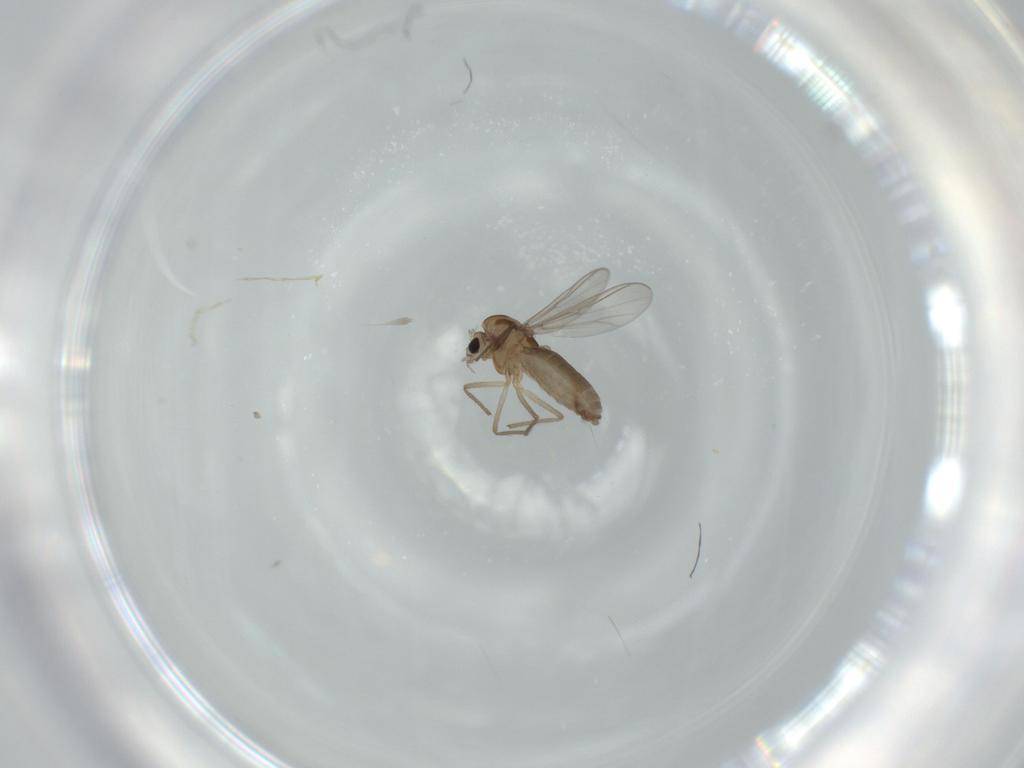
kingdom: Animalia
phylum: Arthropoda
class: Insecta
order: Diptera
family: Chironomidae
